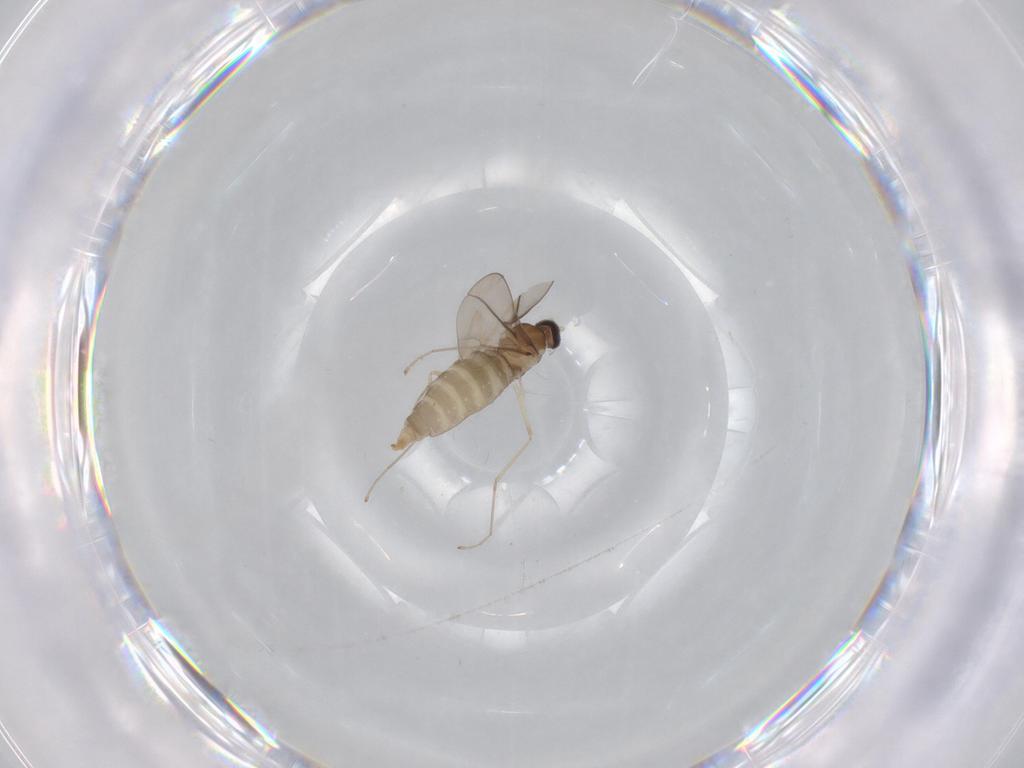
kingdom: Animalia
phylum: Arthropoda
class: Insecta
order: Diptera
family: Cecidomyiidae
